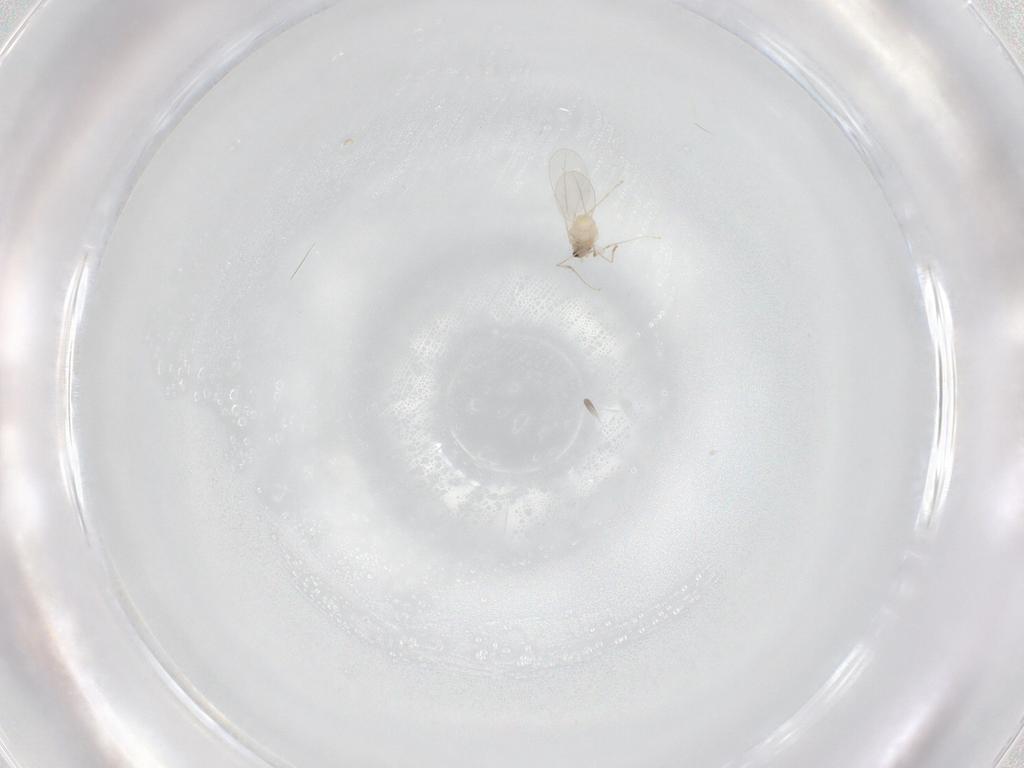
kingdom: Animalia
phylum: Arthropoda
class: Insecta
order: Diptera
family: Cecidomyiidae
